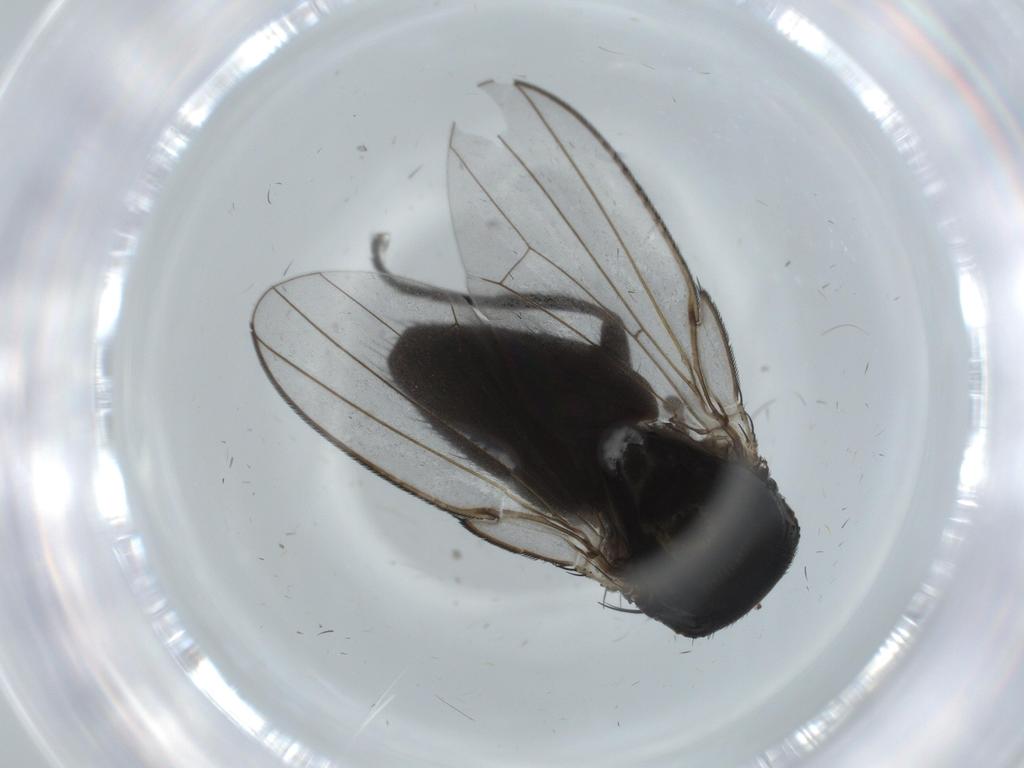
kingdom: Animalia
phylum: Arthropoda
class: Insecta
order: Diptera
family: Milichiidae
